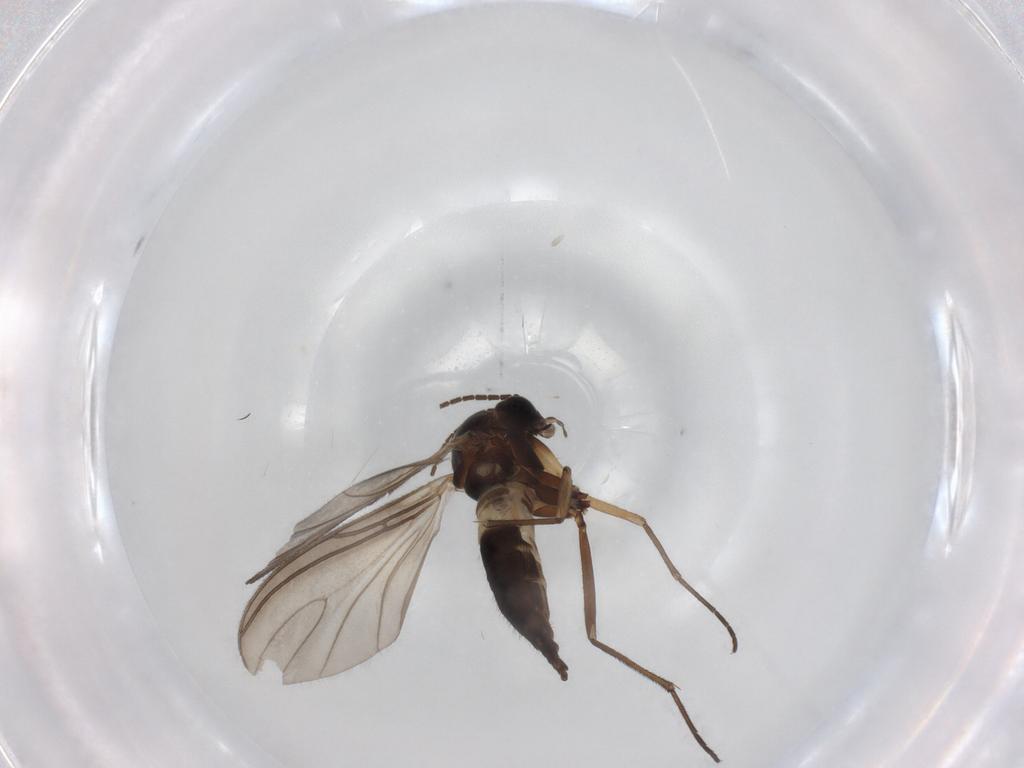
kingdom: Animalia
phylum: Arthropoda
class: Insecta
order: Diptera
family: Sciaridae
